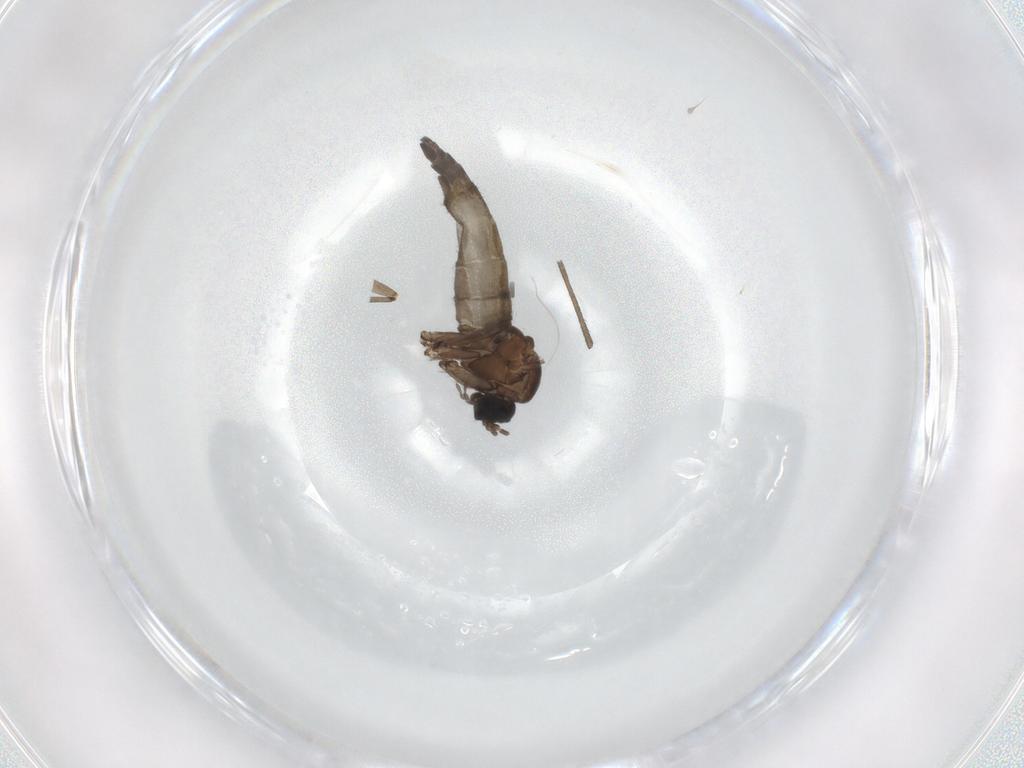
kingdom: Animalia
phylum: Arthropoda
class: Insecta
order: Diptera
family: Sciaridae
